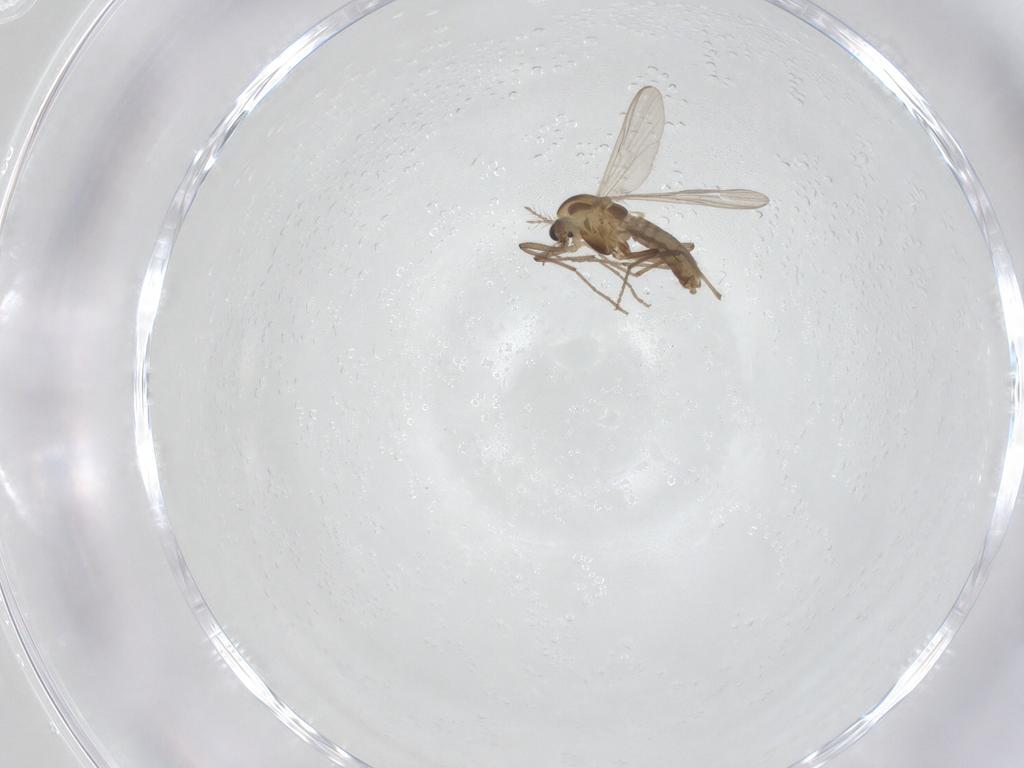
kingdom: Animalia
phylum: Arthropoda
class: Insecta
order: Diptera
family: Chironomidae
